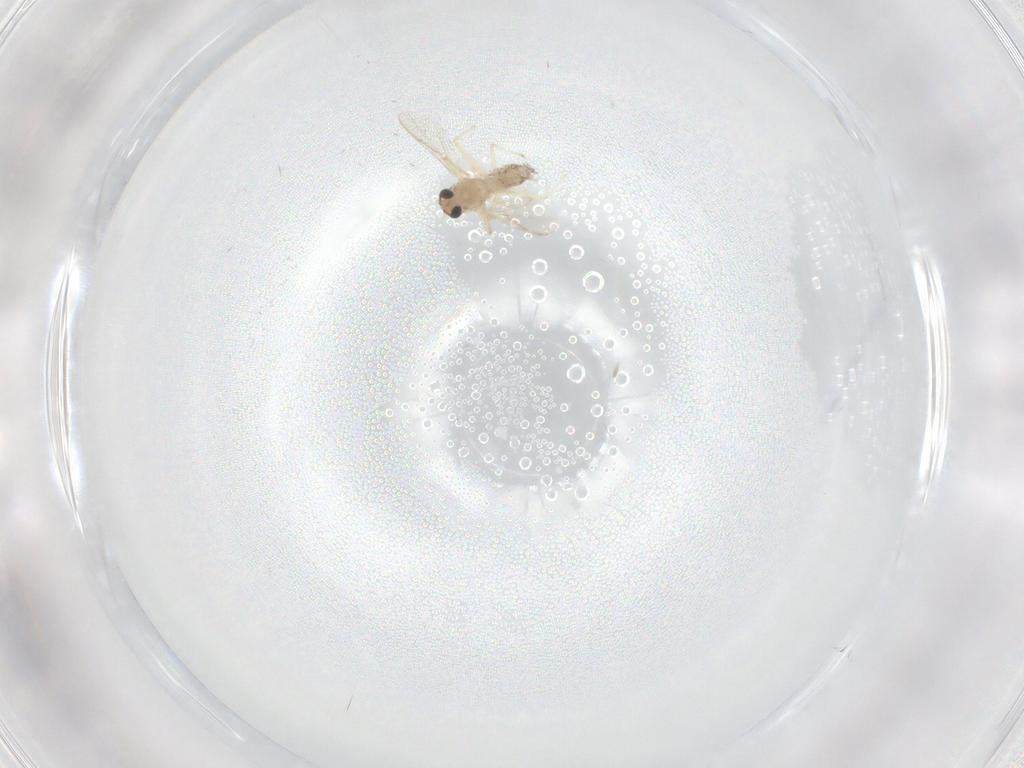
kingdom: Animalia
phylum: Arthropoda
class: Insecta
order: Diptera
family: Chironomidae
